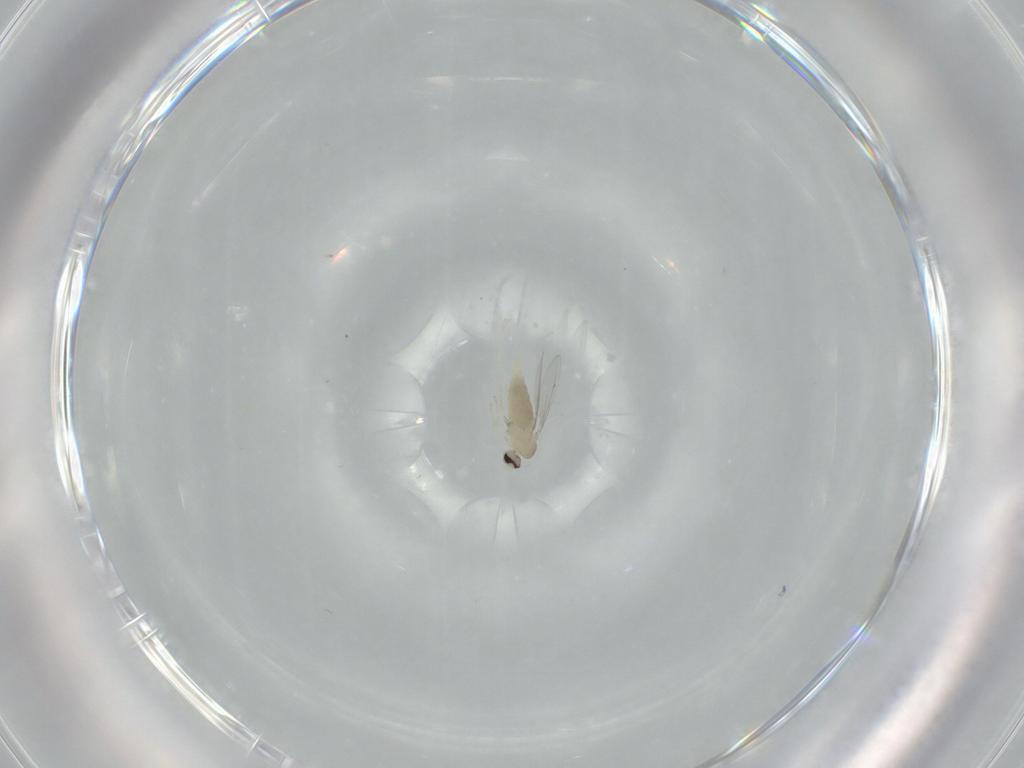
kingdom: Animalia
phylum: Arthropoda
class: Insecta
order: Diptera
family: Cecidomyiidae
